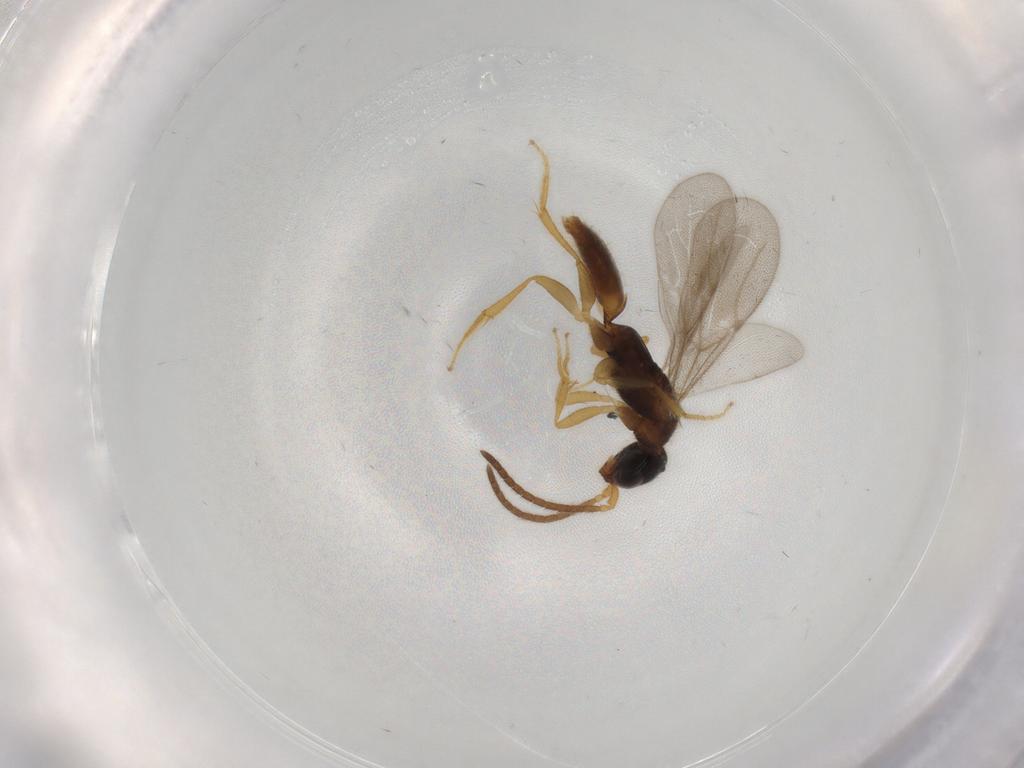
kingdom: Animalia
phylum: Arthropoda
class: Insecta
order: Hymenoptera
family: Bethylidae
